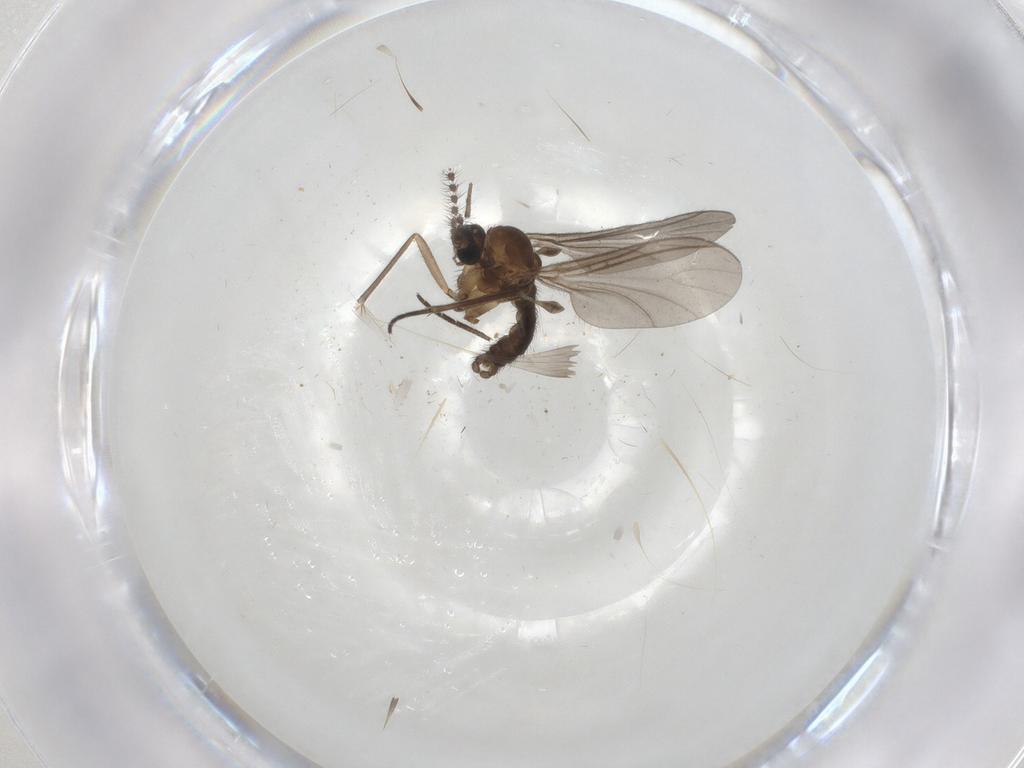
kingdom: Animalia
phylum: Arthropoda
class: Insecta
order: Diptera
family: Sciaridae
